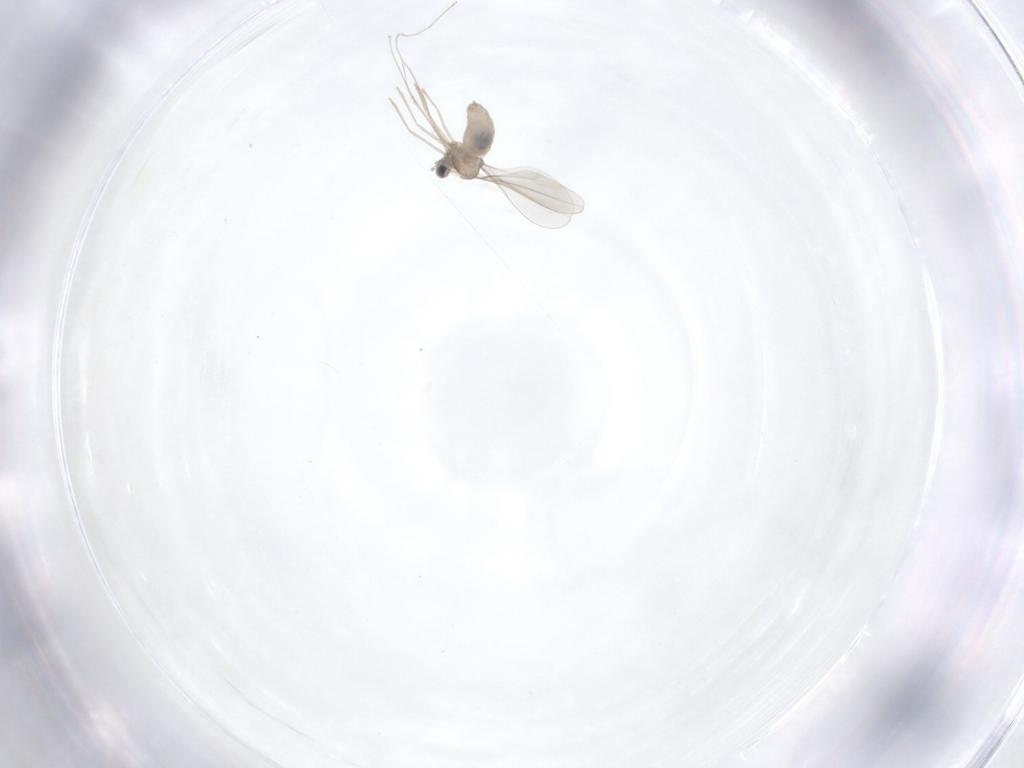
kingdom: Animalia
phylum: Arthropoda
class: Insecta
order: Diptera
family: Cecidomyiidae
